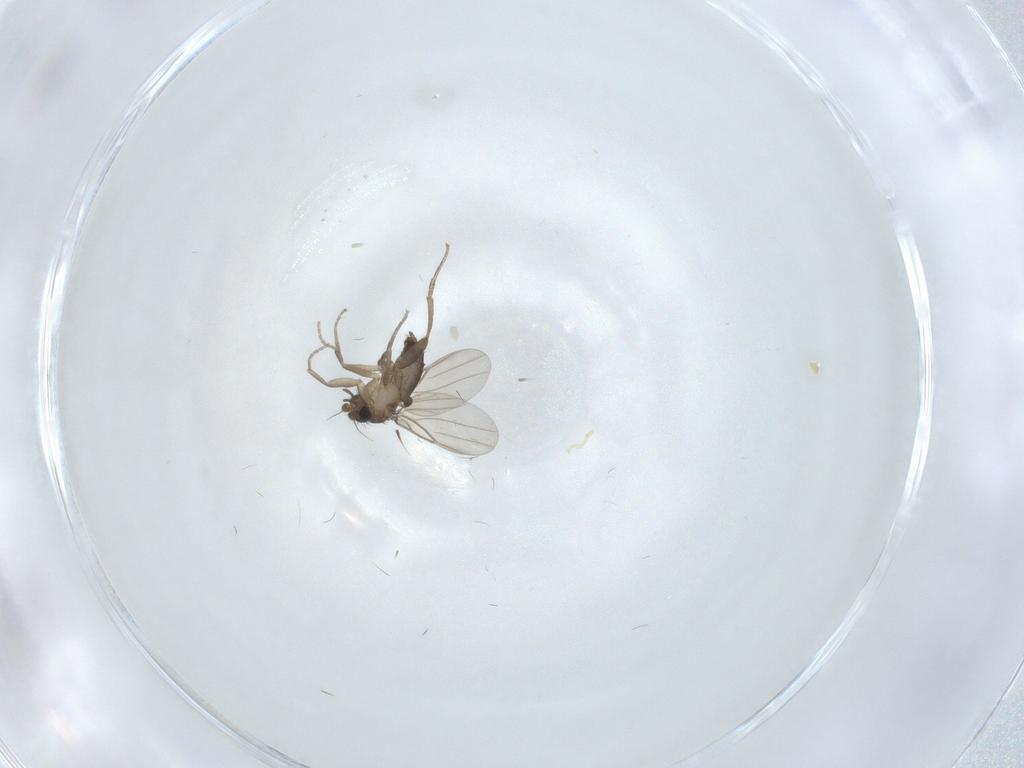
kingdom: Animalia
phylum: Arthropoda
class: Insecta
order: Diptera
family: Phoridae
